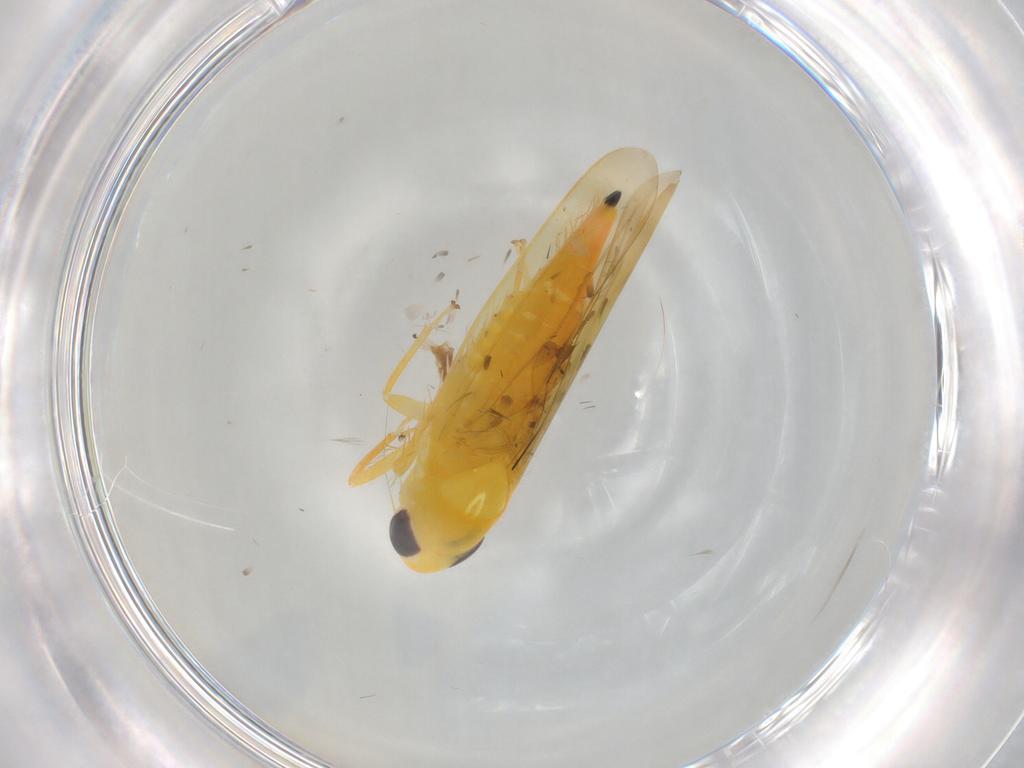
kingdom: Animalia
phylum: Arthropoda
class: Insecta
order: Hemiptera
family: Cicadellidae
